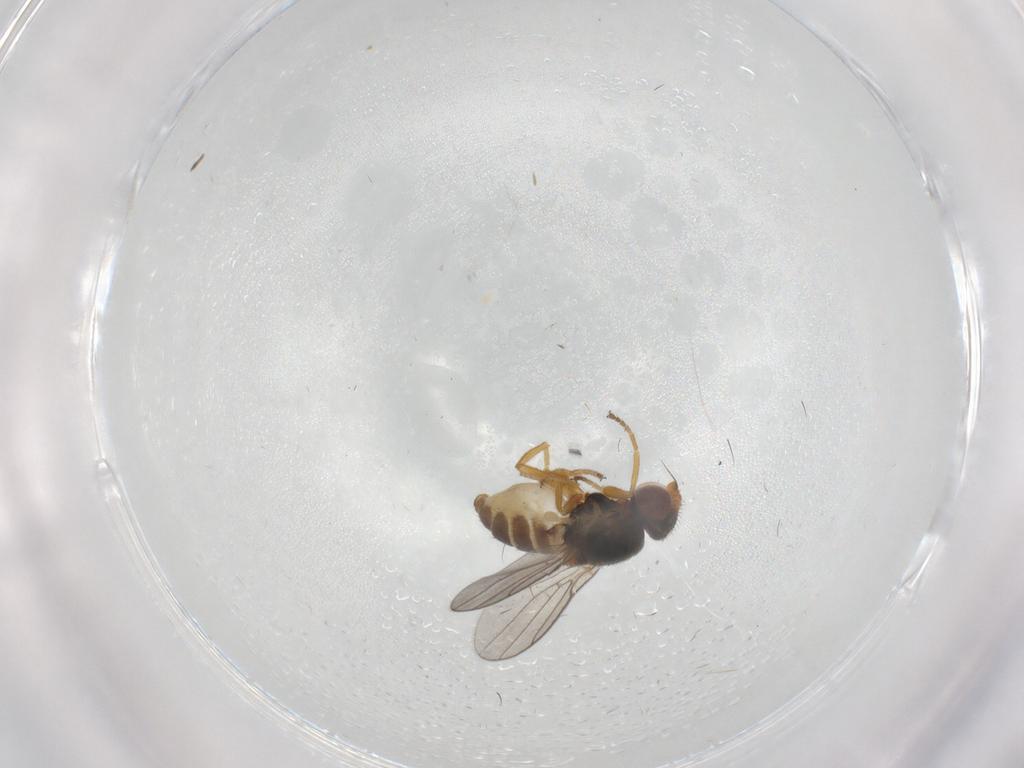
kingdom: Animalia
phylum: Arthropoda
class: Insecta
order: Diptera
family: Chloropidae
